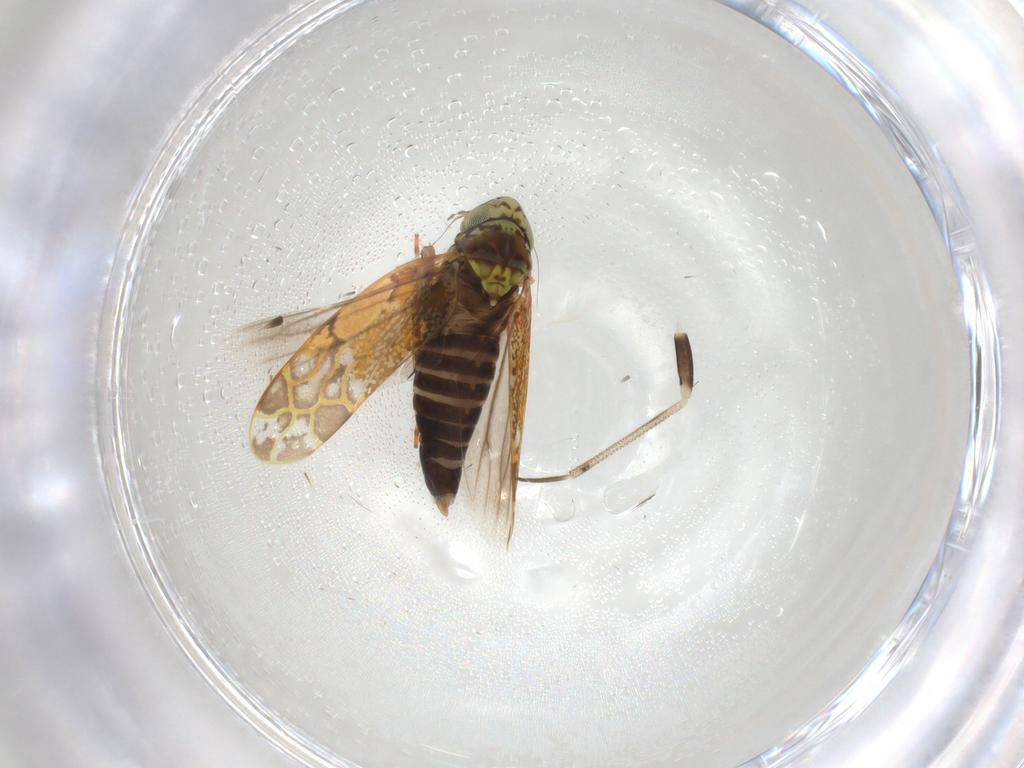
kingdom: Animalia
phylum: Arthropoda
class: Insecta
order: Hemiptera
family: Cicadellidae
